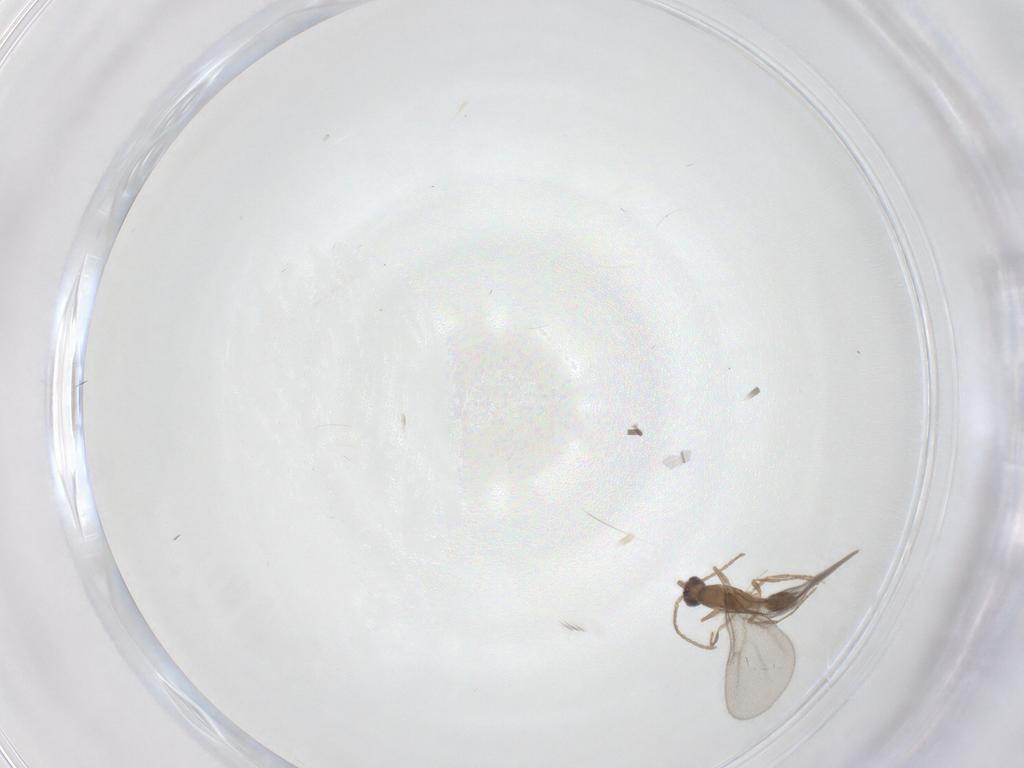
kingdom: Animalia
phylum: Arthropoda
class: Insecta
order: Hymenoptera
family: Formicidae
